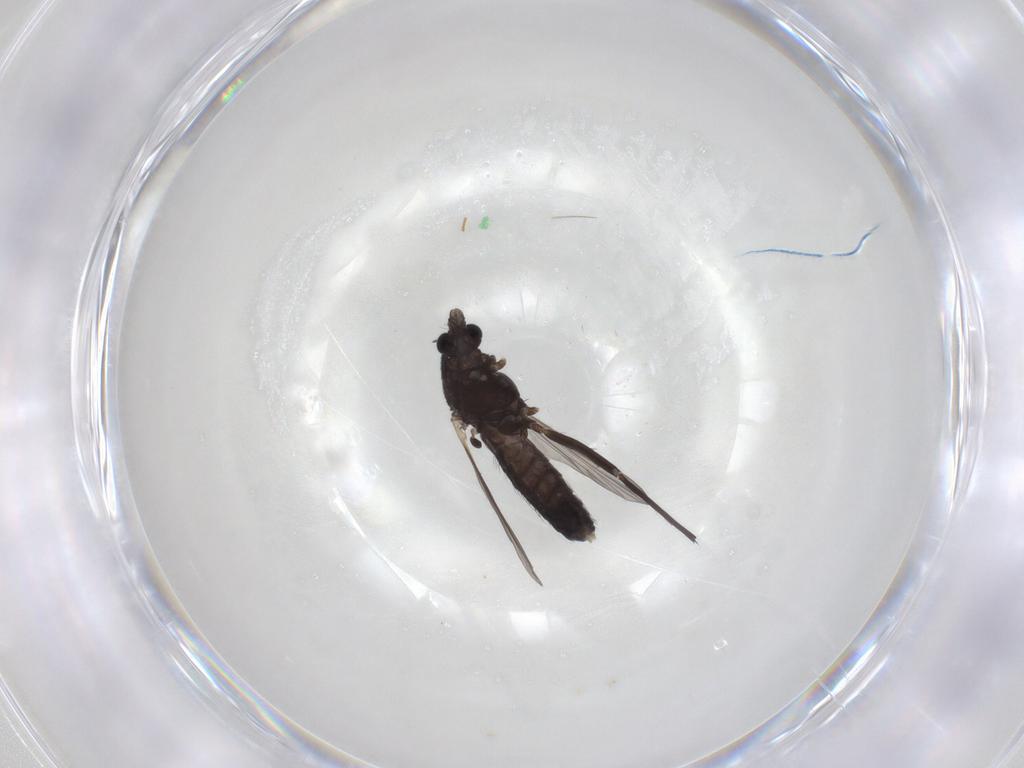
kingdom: Animalia
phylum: Arthropoda
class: Insecta
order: Diptera
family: Chironomidae
